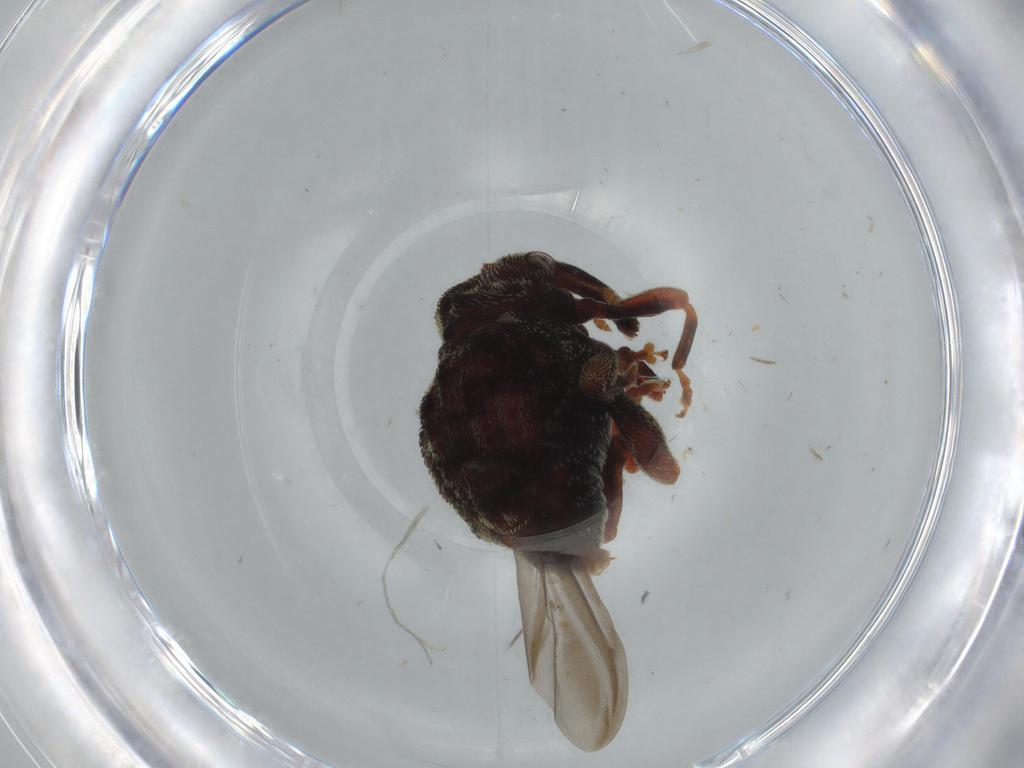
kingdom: Animalia
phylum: Arthropoda
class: Insecta
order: Coleoptera
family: Curculionidae
